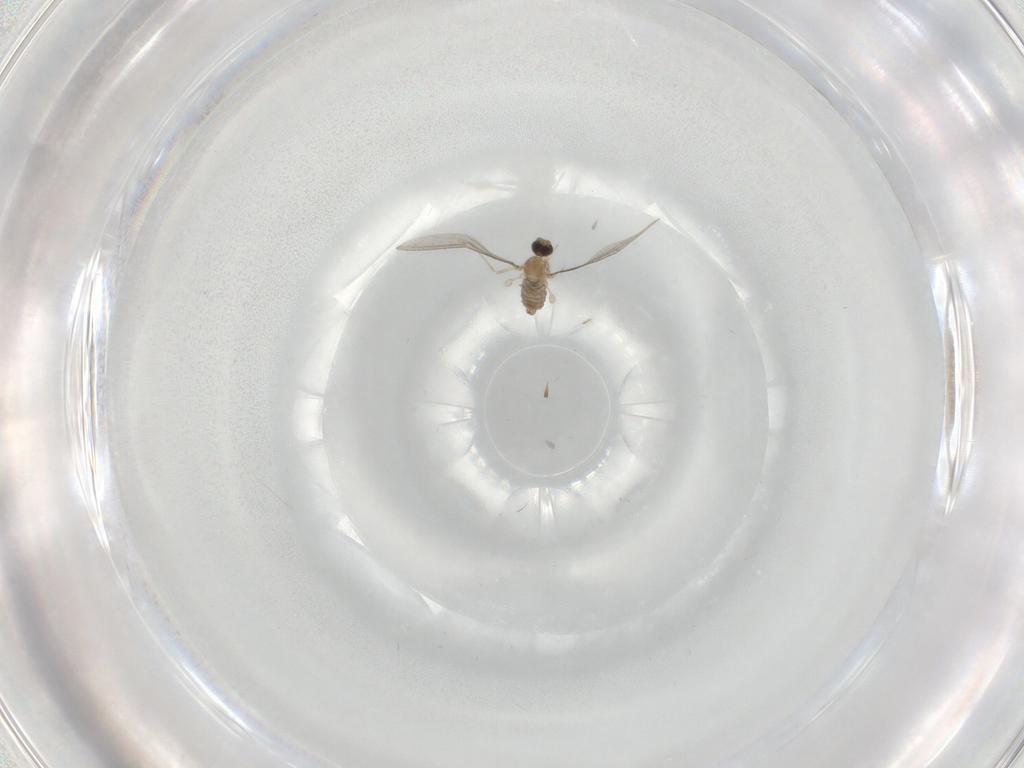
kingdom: Animalia
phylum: Arthropoda
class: Insecta
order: Diptera
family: Cecidomyiidae
